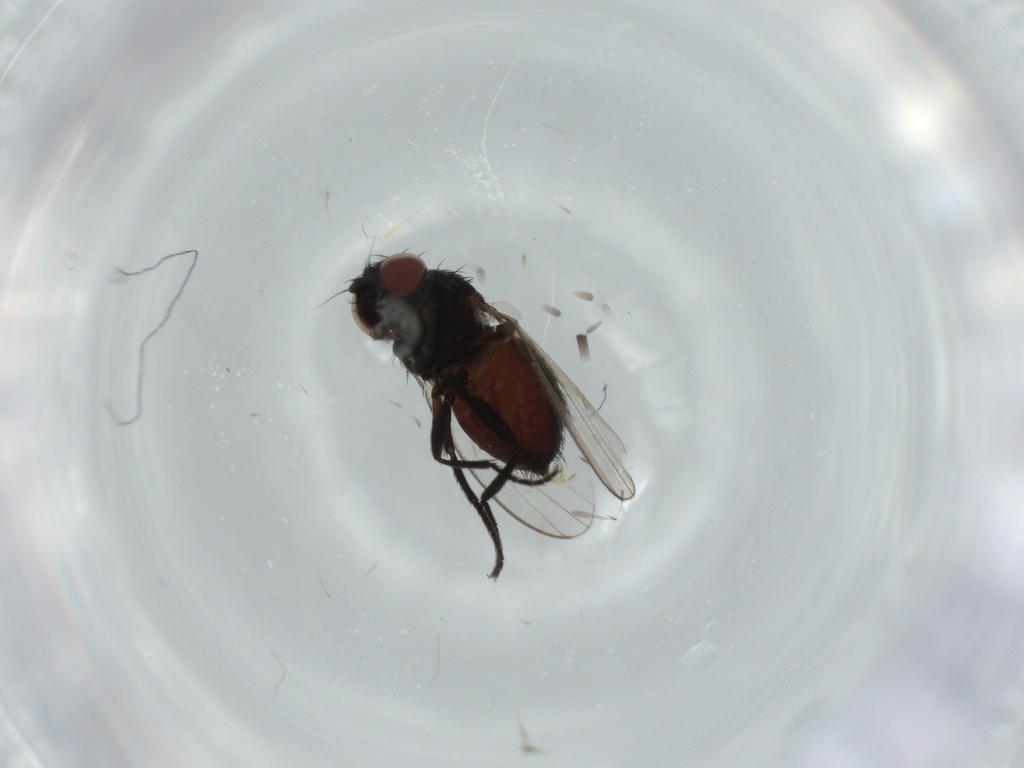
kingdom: Animalia
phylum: Arthropoda
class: Insecta
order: Diptera
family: Milichiidae
